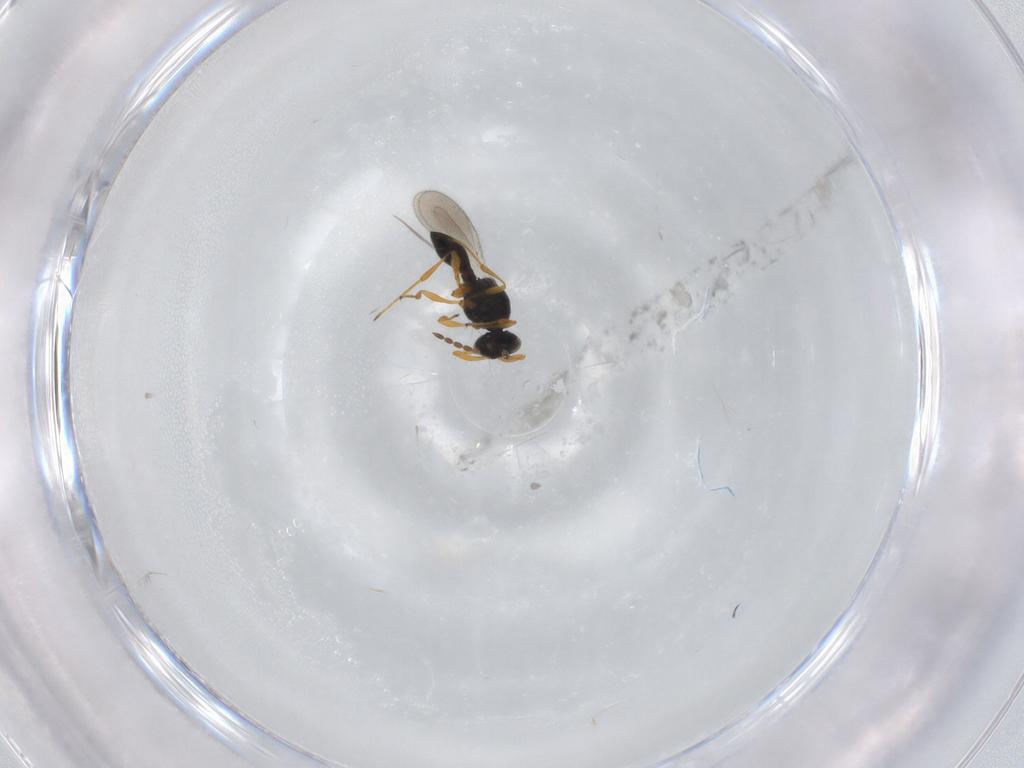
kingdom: Animalia
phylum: Arthropoda
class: Insecta
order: Hymenoptera
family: Platygastridae
